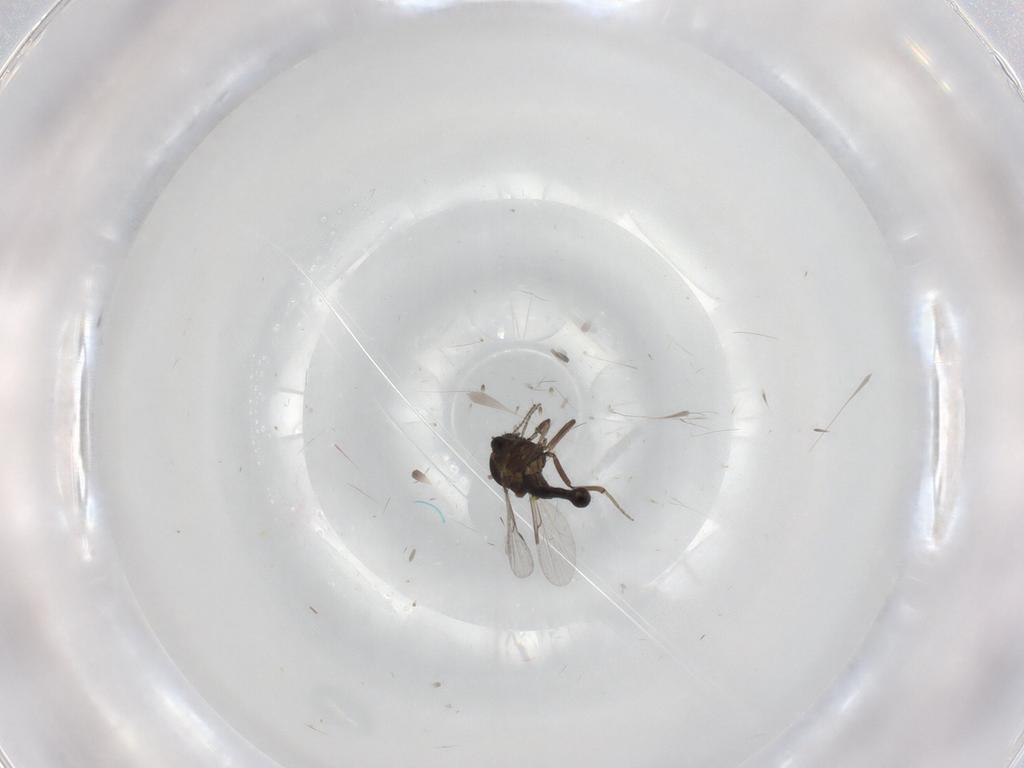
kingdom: Animalia
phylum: Arthropoda
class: Insecta
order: Diptera
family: Ceratopogonidae
